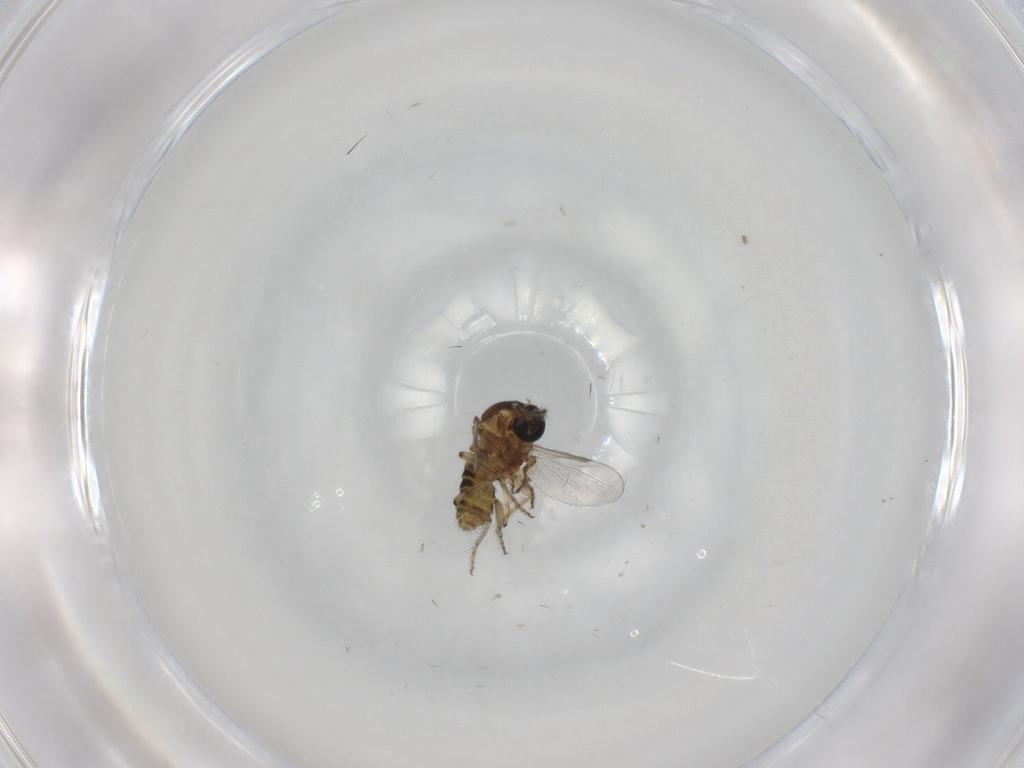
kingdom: Animalia
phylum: Arthropoda
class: Insecta
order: Diptera
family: Ceratopogonidae
